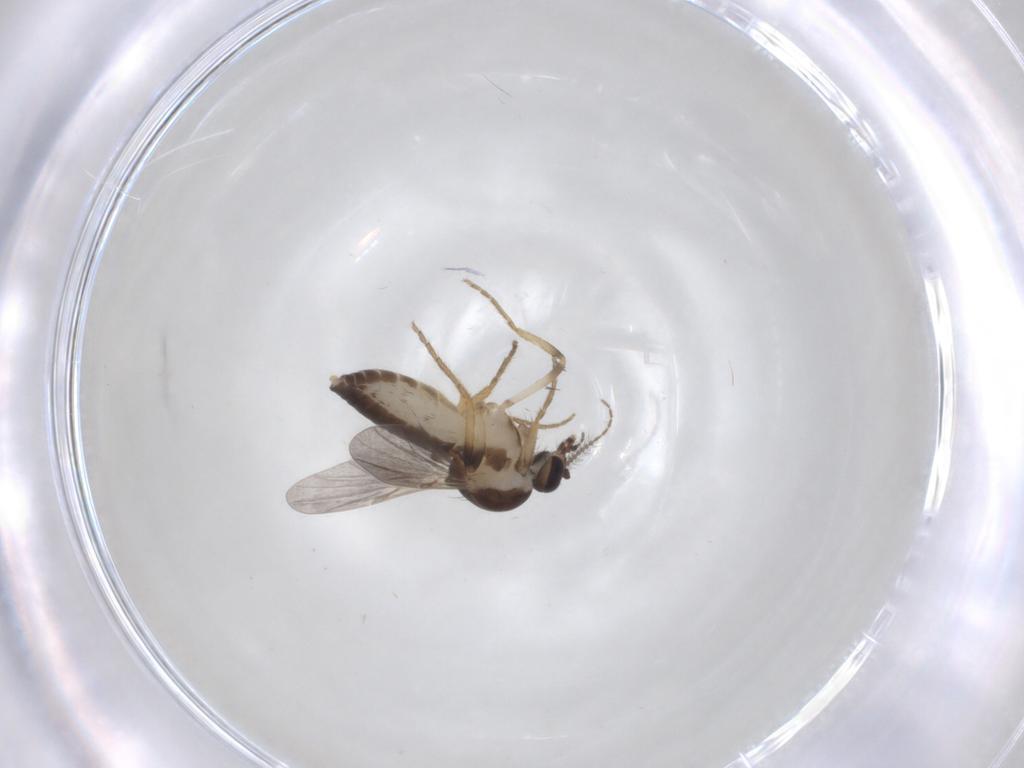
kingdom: Animalia
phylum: Arthropoda
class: Insecta
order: Diptera
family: Ceratopogonidae
